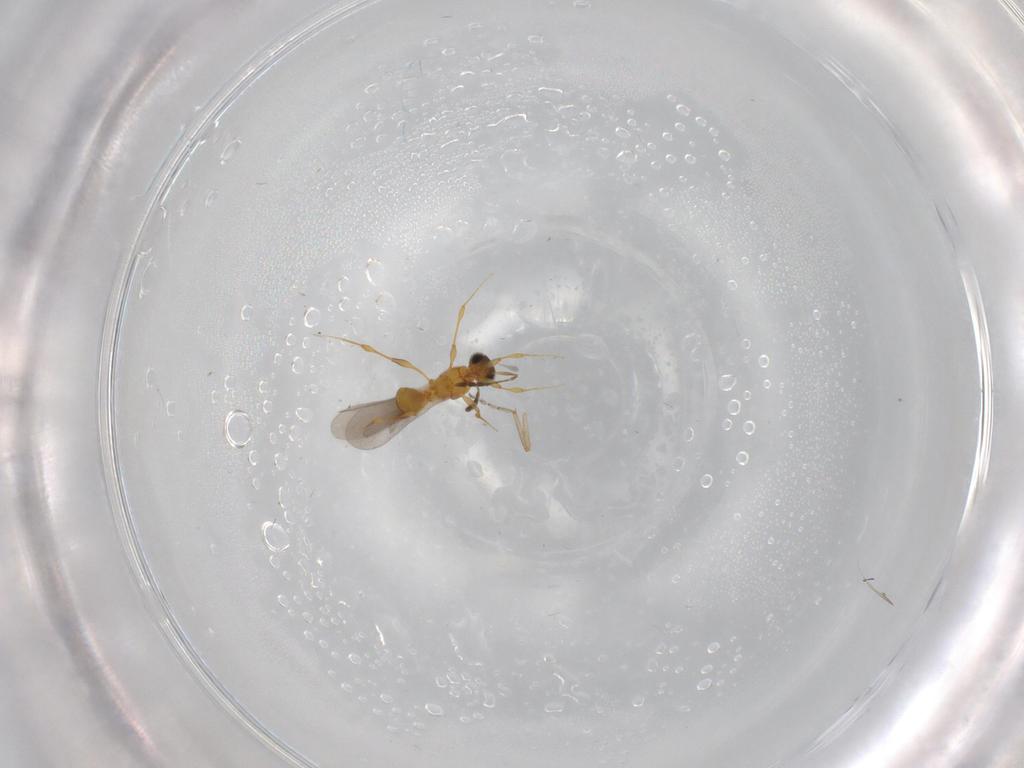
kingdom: Animalia
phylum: Arthropoda
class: Insecta
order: Hymenoptera
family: Platygastridae
